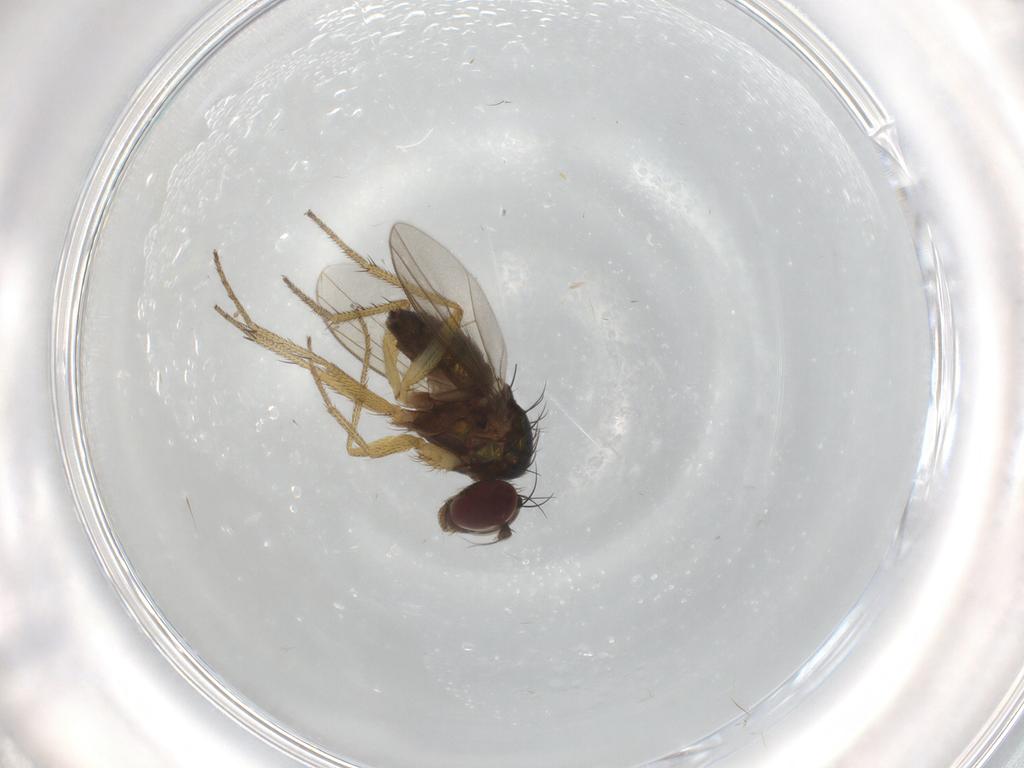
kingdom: Animalia
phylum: Arthropoda
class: Insecta
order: Diptera
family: Dolichopodidae
